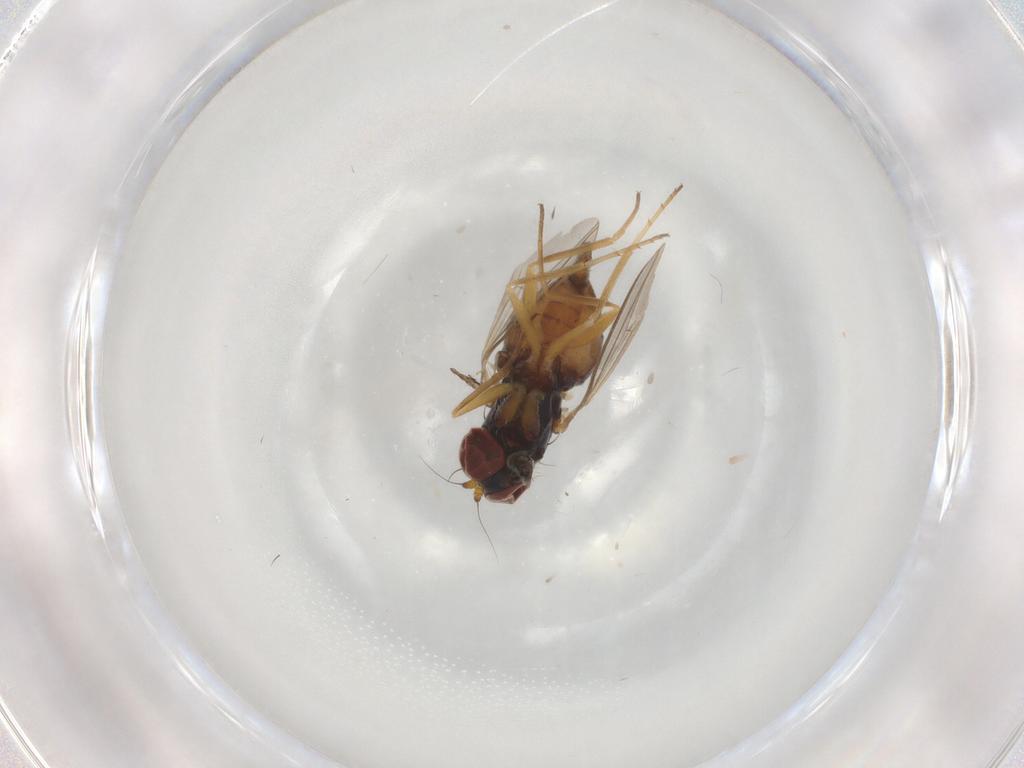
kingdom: Animalia
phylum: Arthropoda
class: Insecta
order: Diptera
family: Dolichopodidae
